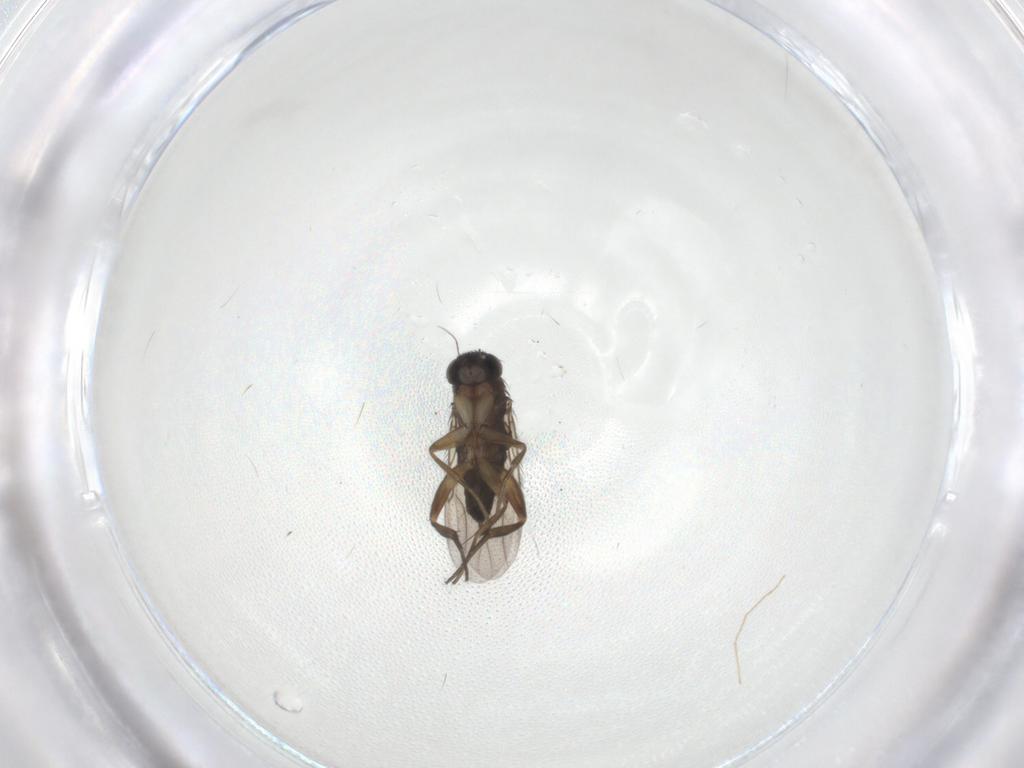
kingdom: Animalia
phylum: Arthropoda
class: Insecta
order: Diptera
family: Phoridae
